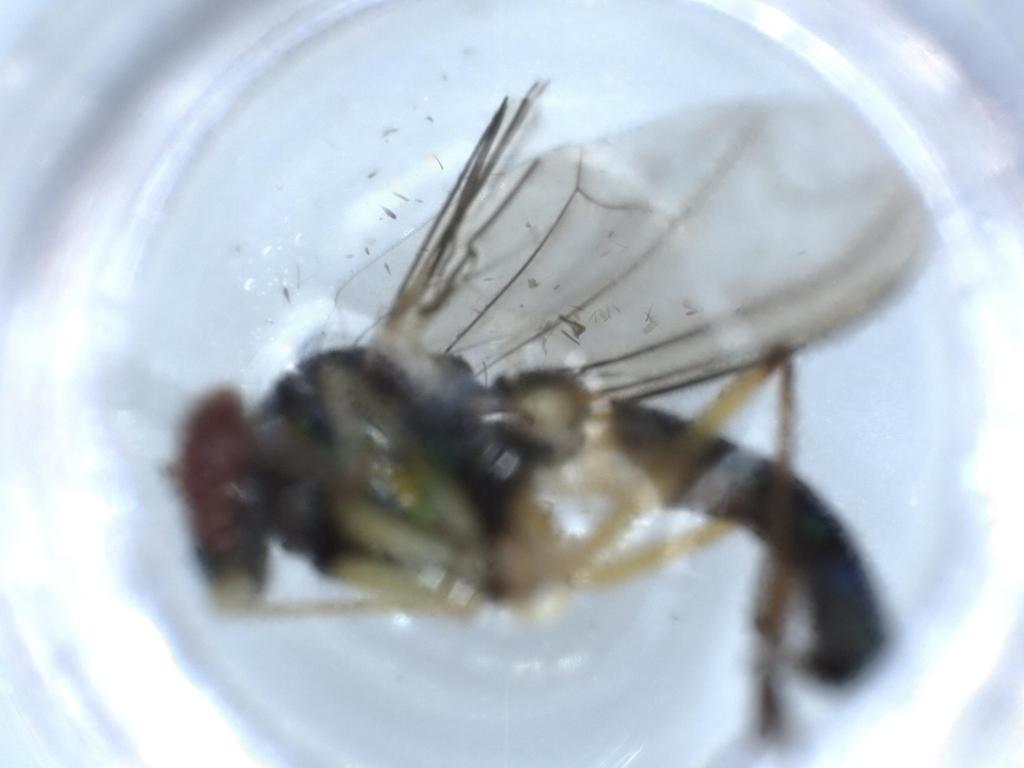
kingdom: Animalia
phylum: Arthropoda
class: Insecta
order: Diptera
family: Dolichopodidae
